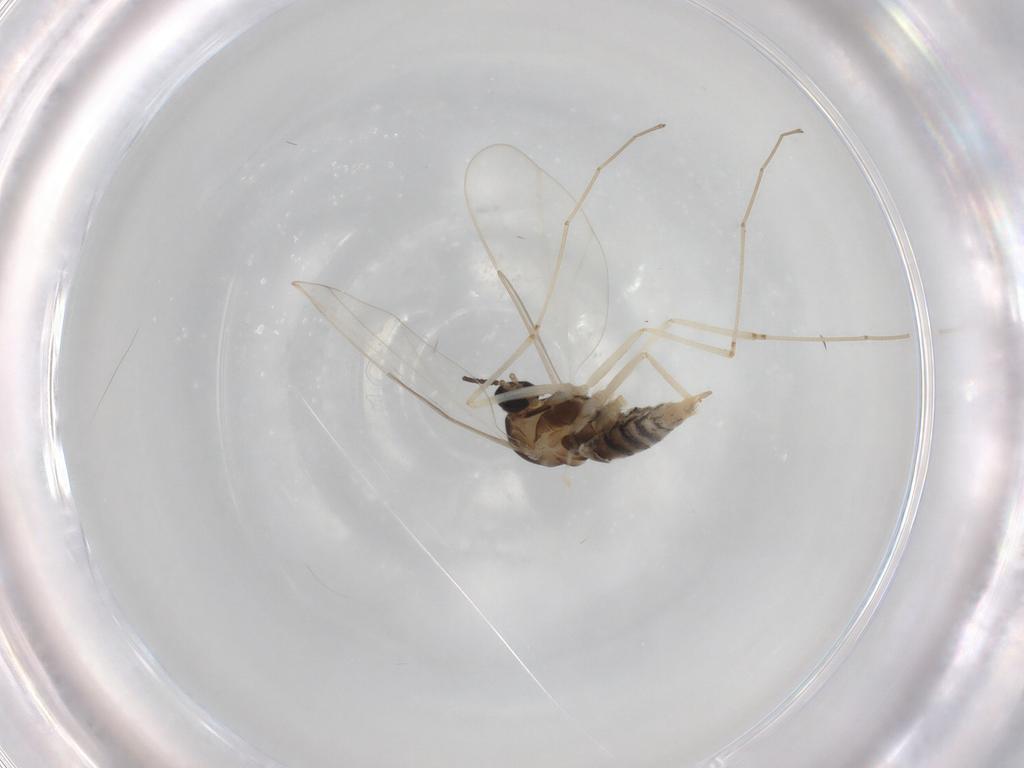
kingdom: Animalia
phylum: Arthropoda
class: Insecta
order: Diptera
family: Cecidomyiidae
